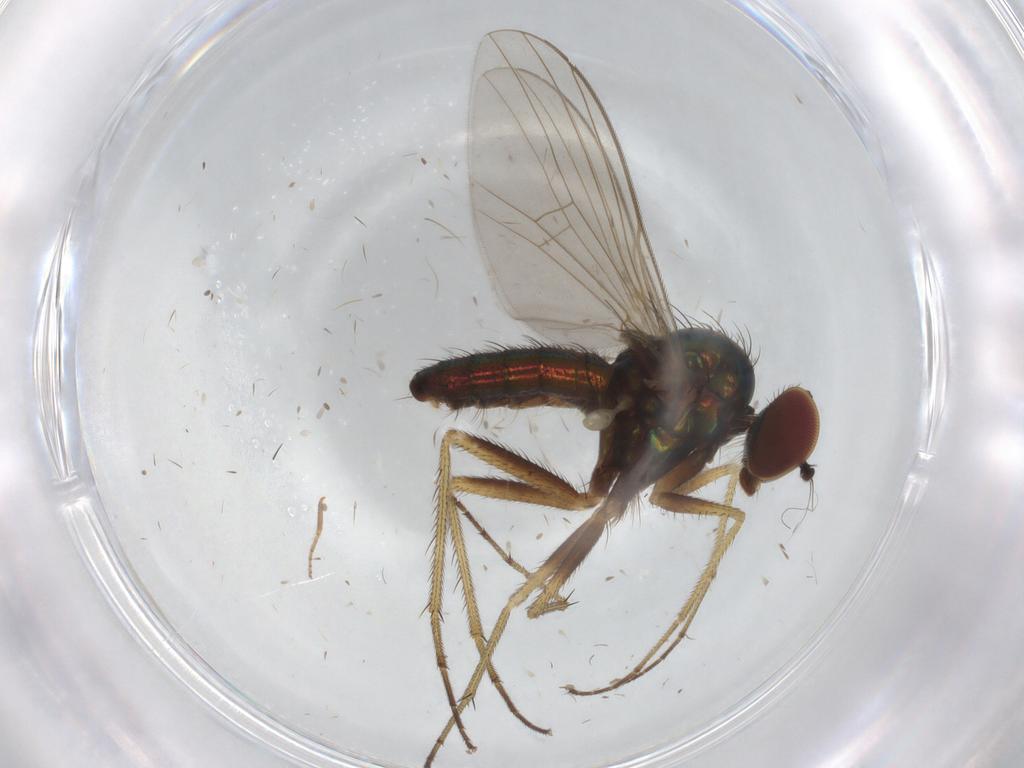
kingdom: Animalia
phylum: Arthropoda
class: Insecta
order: Diptera
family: Dolichopodidae
